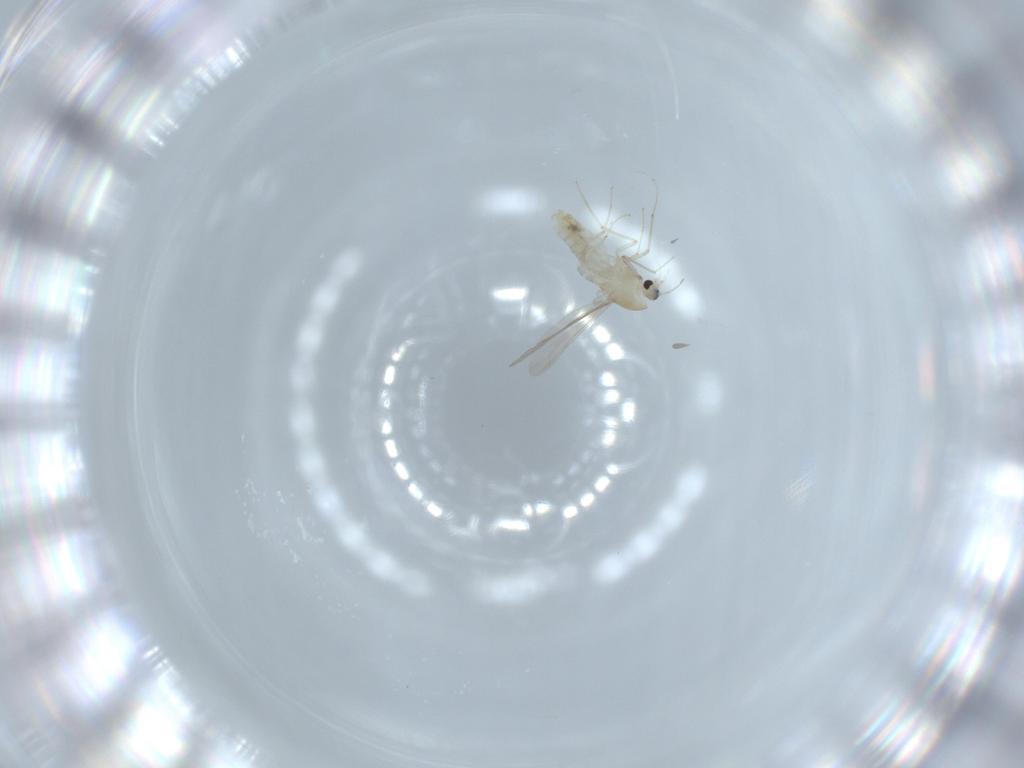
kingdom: Animalia
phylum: Arthropoda
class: Insecta
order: Diptera
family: Chironomidae
